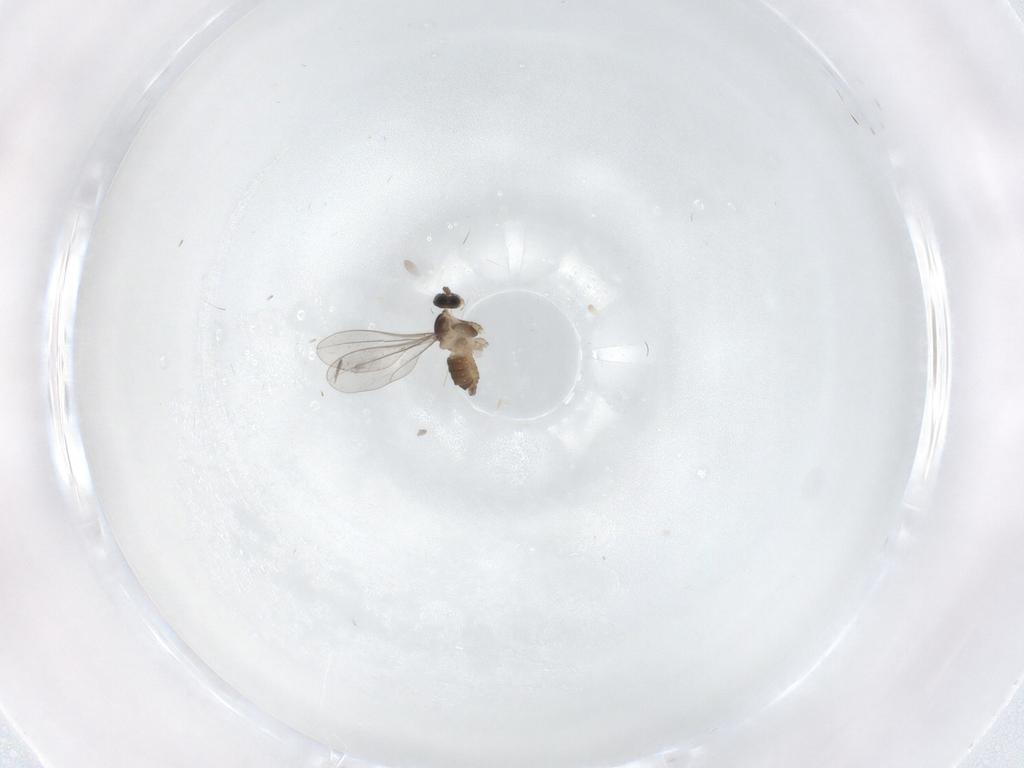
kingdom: Animalia
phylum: Arthropoda
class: Insecta
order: Diptera
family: Cecidomyiidae
